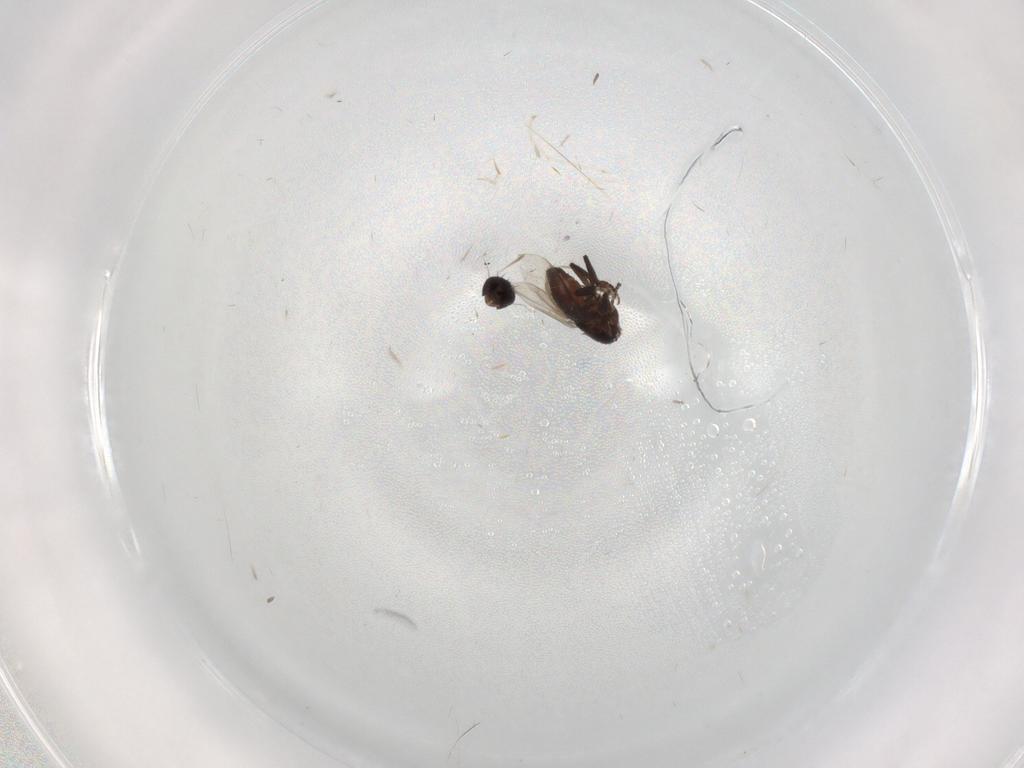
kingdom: Animalia
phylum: Arthropoda
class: Insecta
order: Diptera
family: Sphaeroceridae
